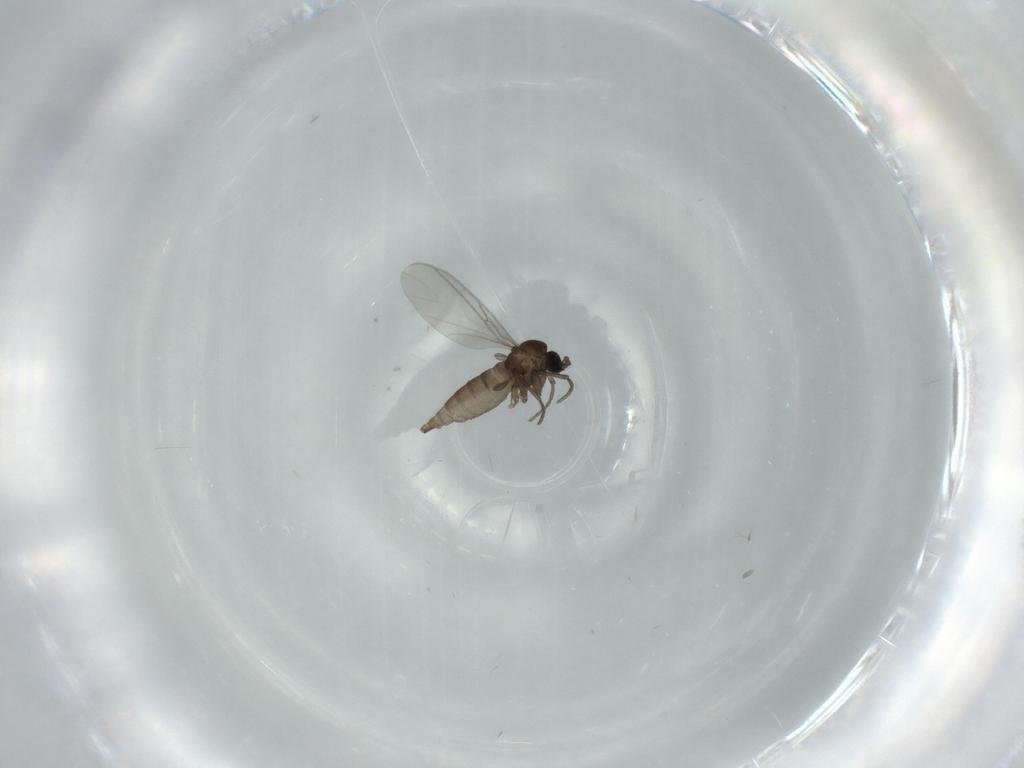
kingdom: Animalia
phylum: Arthropoda
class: Insecta
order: Diptera
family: Sciaridae
